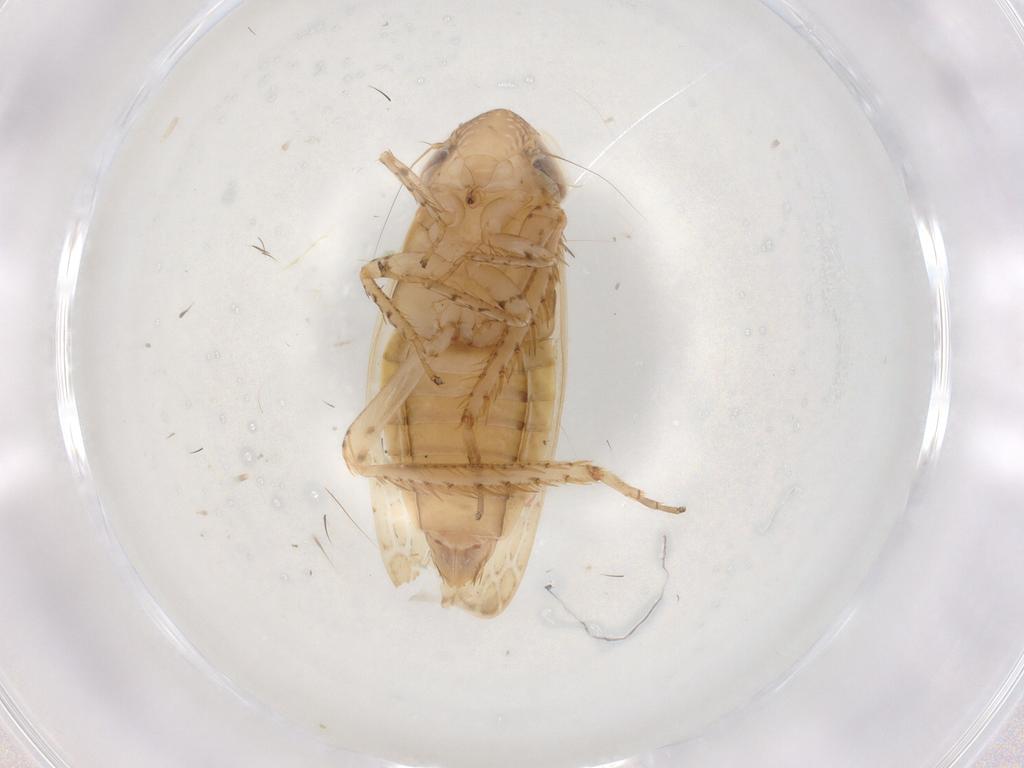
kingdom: Animalia
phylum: Arthropoda
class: Insecta
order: Hemiptera
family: Cicadellidae
